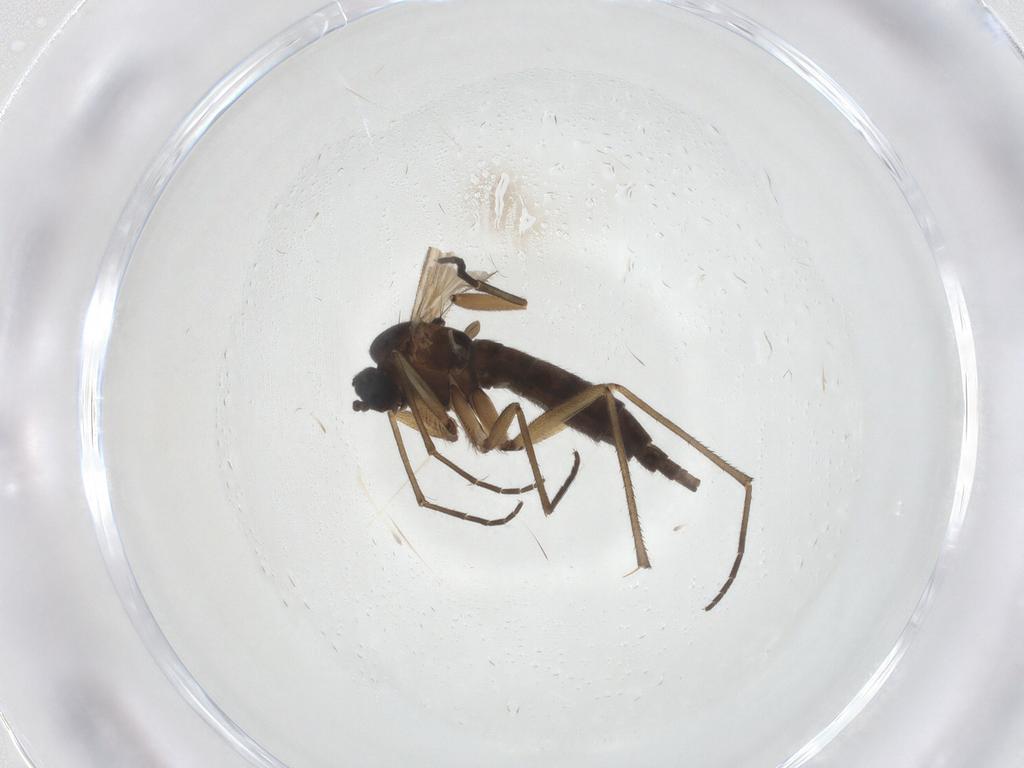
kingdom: Animalia
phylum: Arthropoda
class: Insecta
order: Diptera
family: Sciaridae
